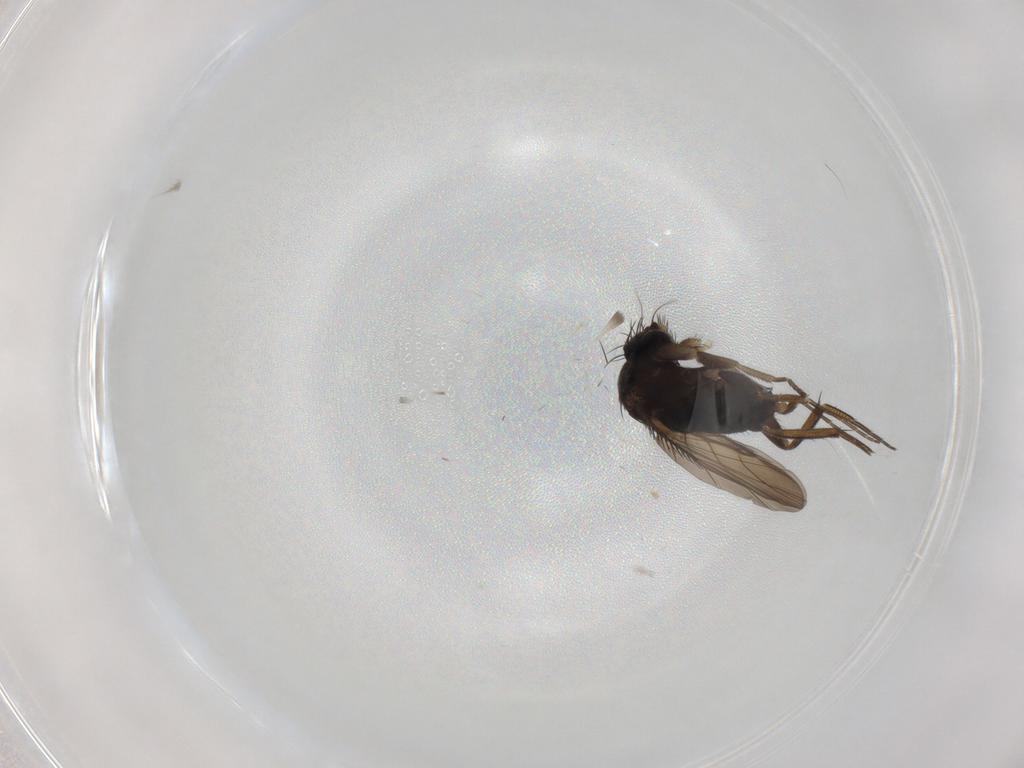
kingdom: Animalia
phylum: Arthropoda
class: Insecta
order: Diptera
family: Phoridae
